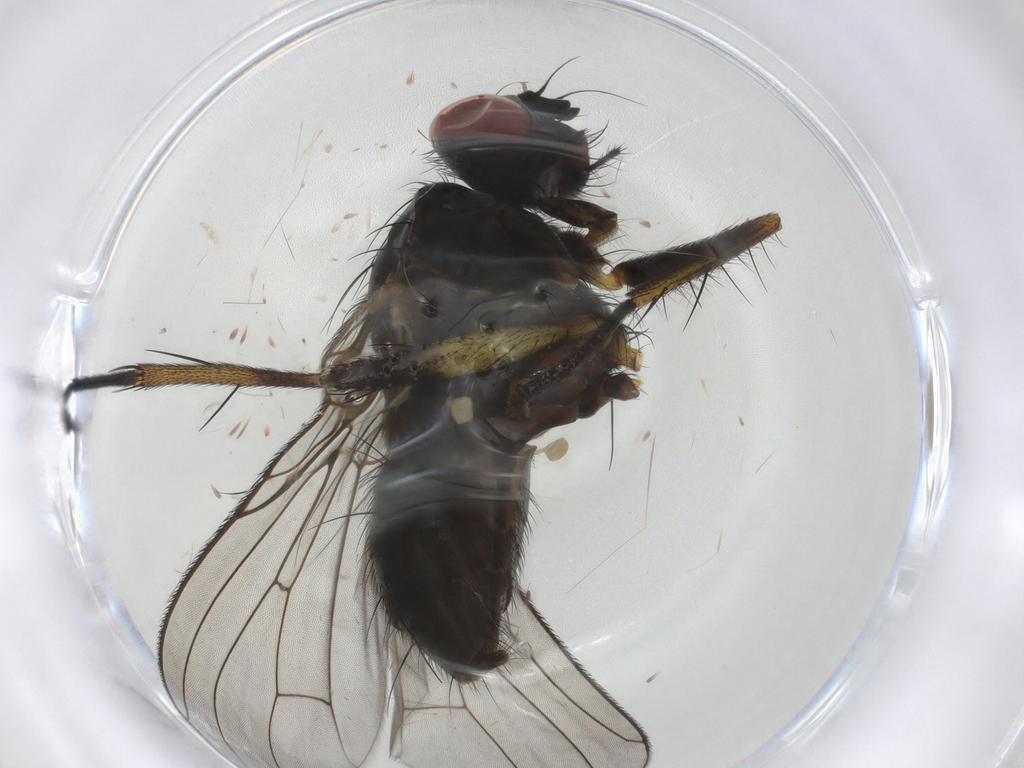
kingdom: Animalia
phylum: Arthropoda
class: Insecta
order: Diptera
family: Muscidae
